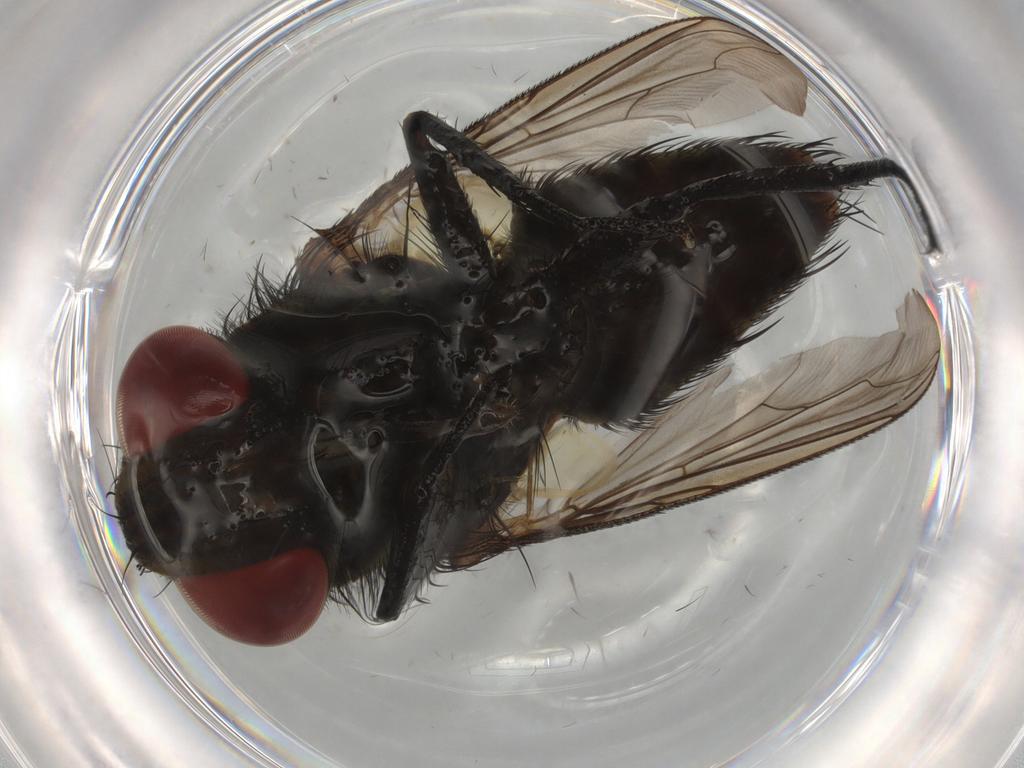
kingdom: Animalia
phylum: Arthropoda
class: Insecta
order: Diptera
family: Sarcophagidae
